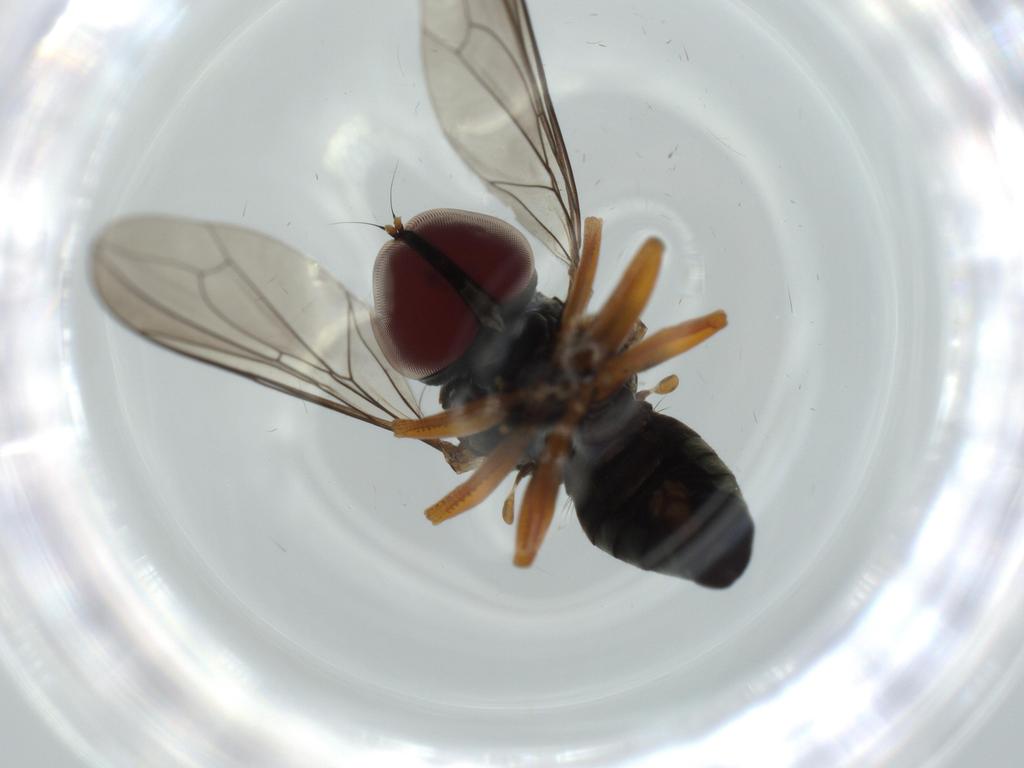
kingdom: Animalia
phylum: Arthropoda
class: Insecta
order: Diptera
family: Pipunculidae
